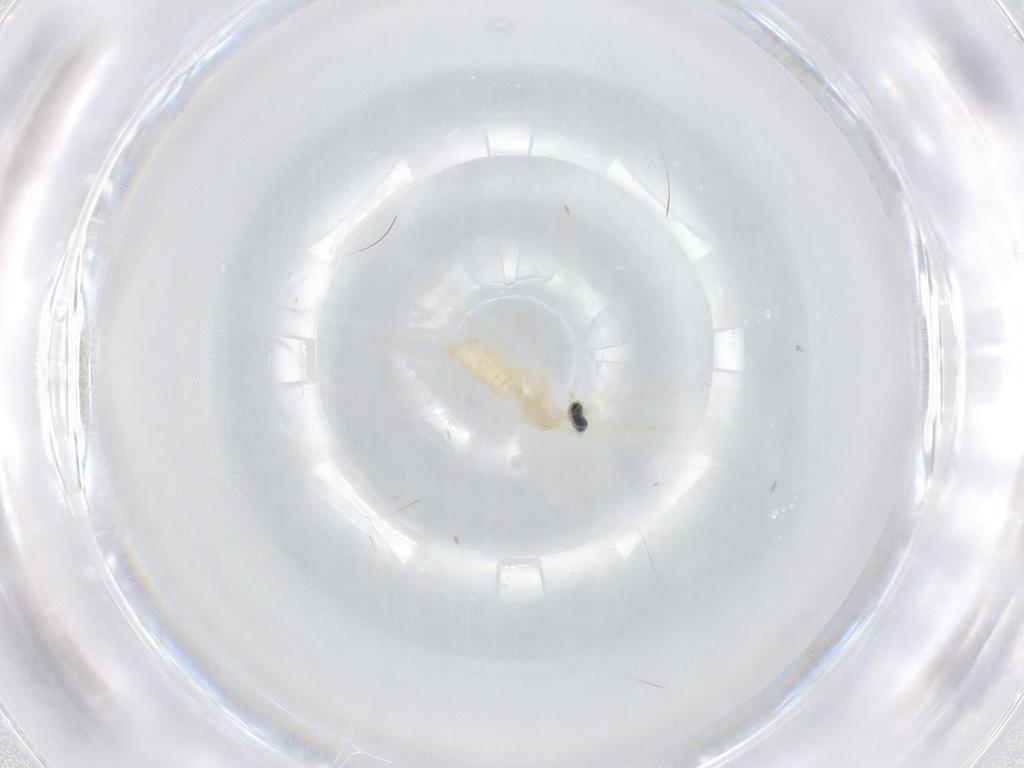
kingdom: Animalia
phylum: Arthropoda
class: Insecta
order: Diptera
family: Cecidomyiidae
